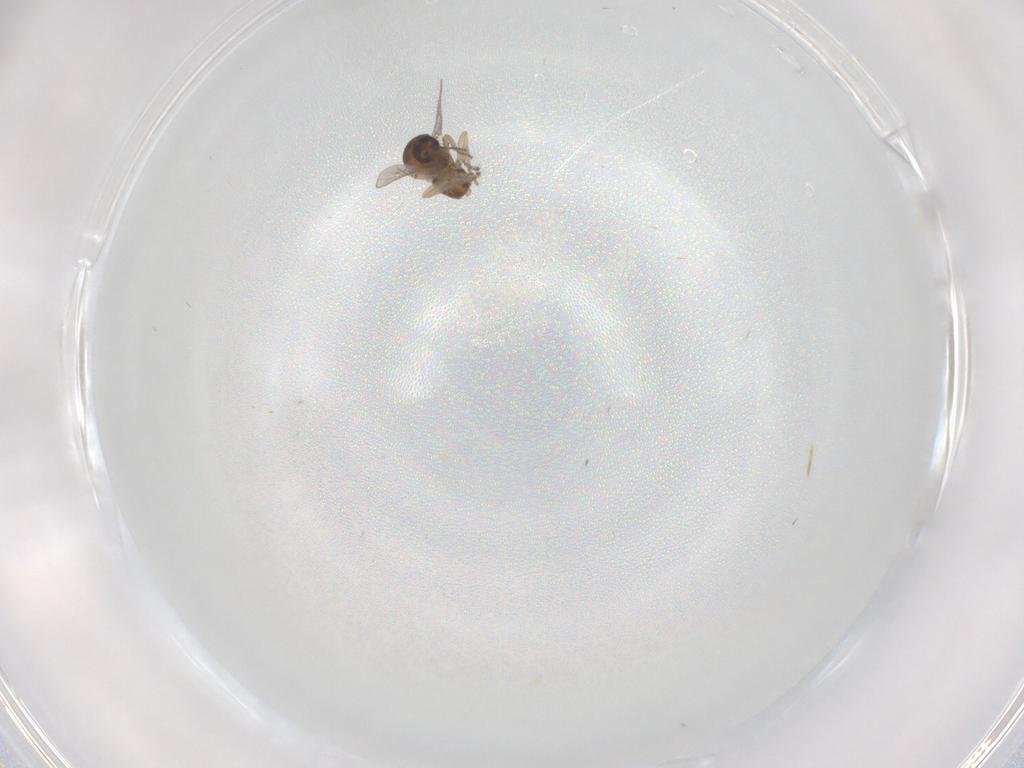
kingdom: Animalia
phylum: Arthropoda
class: Insecta
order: Diptera
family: Ceratopogonidae
